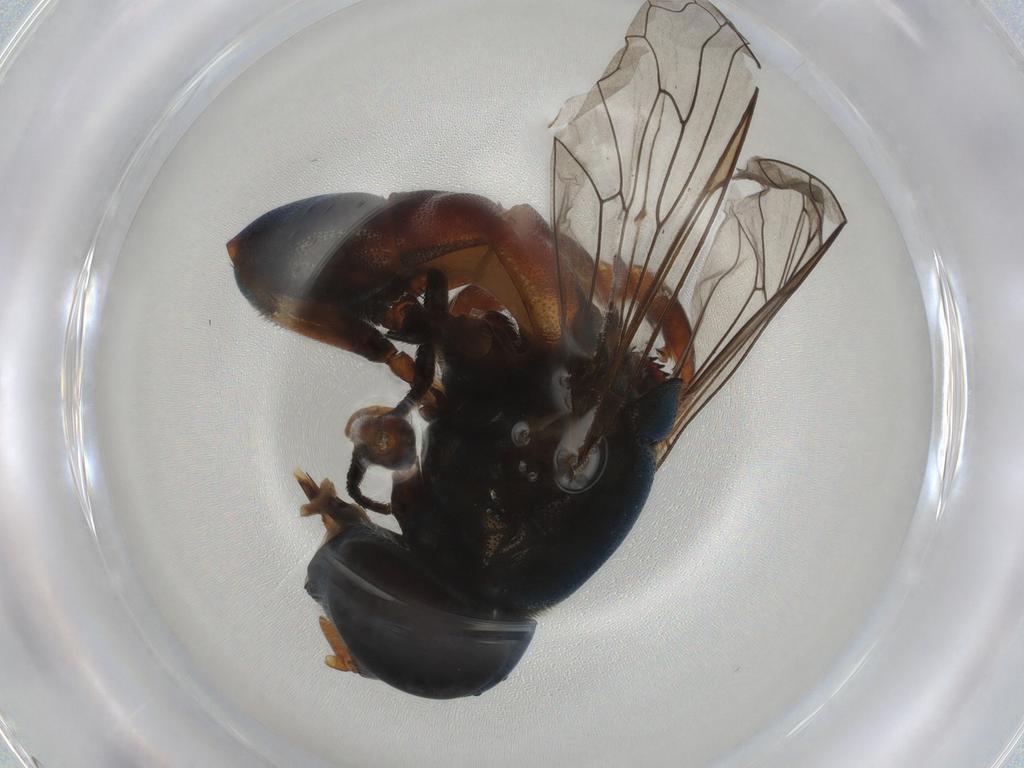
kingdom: Animalia
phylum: Arthropoda
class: Insecta
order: Diptera
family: Syrphidae
